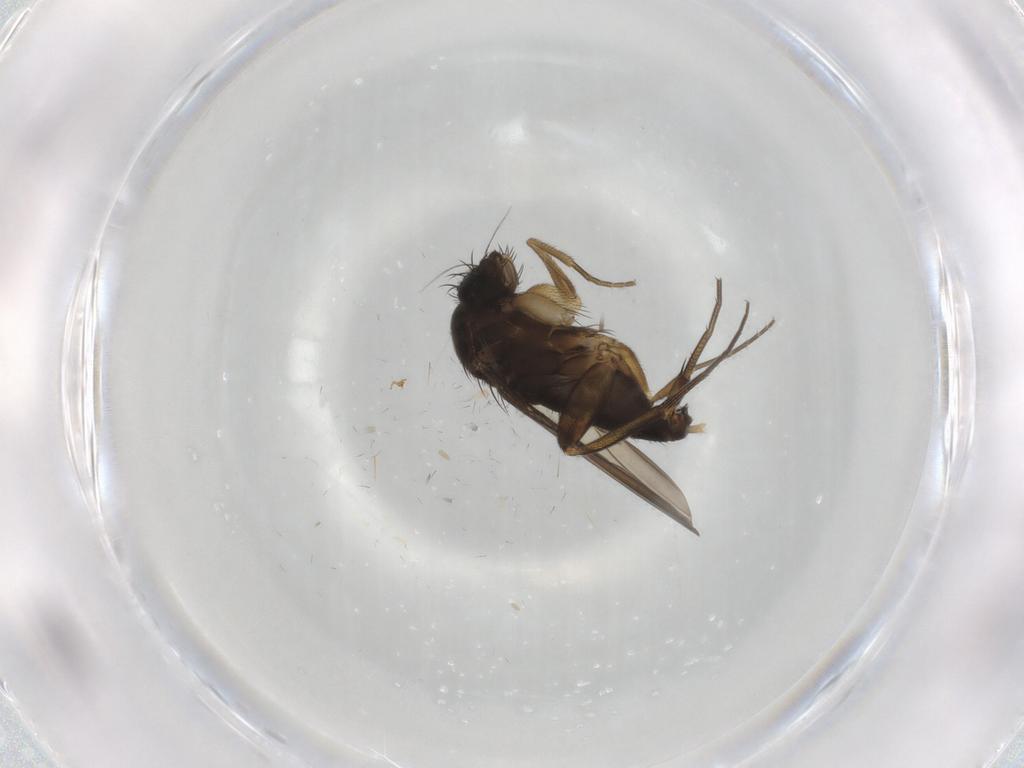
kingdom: Animalia
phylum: Arthropoda
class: Insecta
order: Diptera
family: Phoridae
